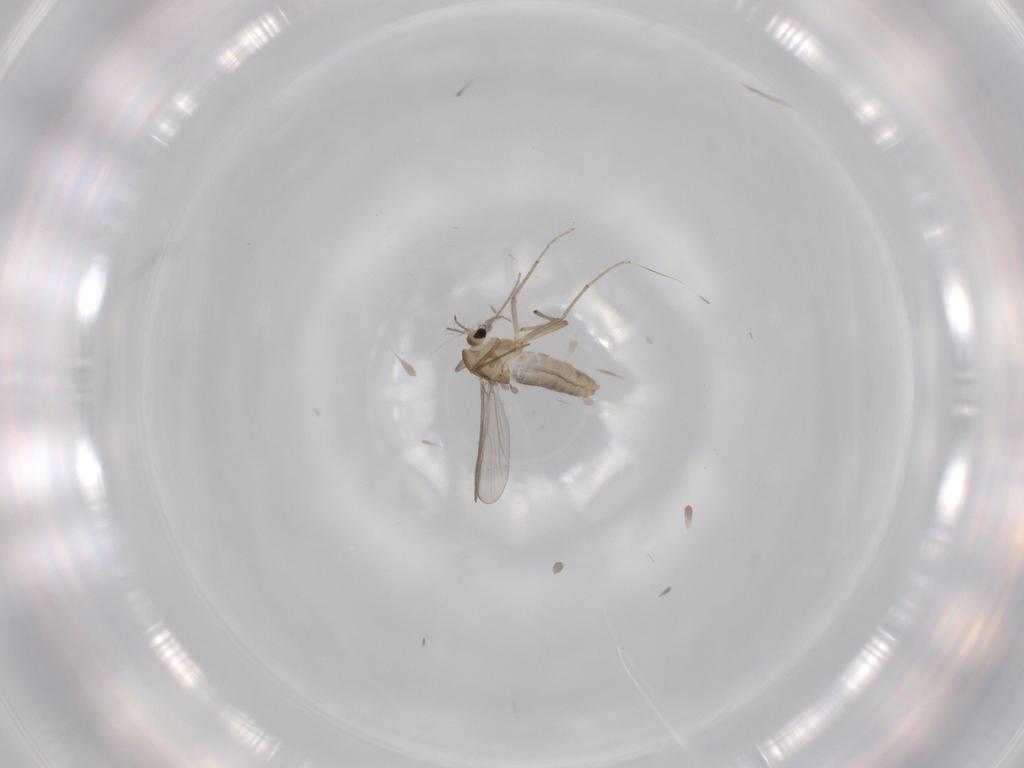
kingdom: Animalia
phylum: Arthropoda
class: Insecta
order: Diptera
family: Chironomidae
